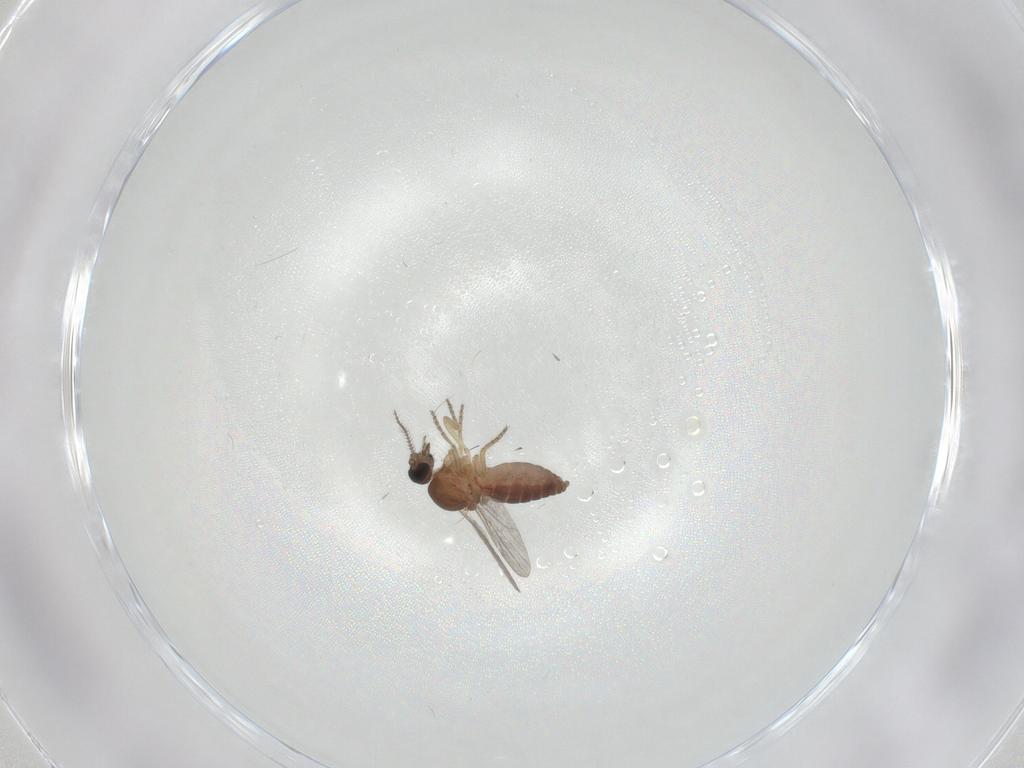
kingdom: Animalia
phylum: Arthropoda
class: Insecta
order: Diptera
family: Ceratopogonidae
